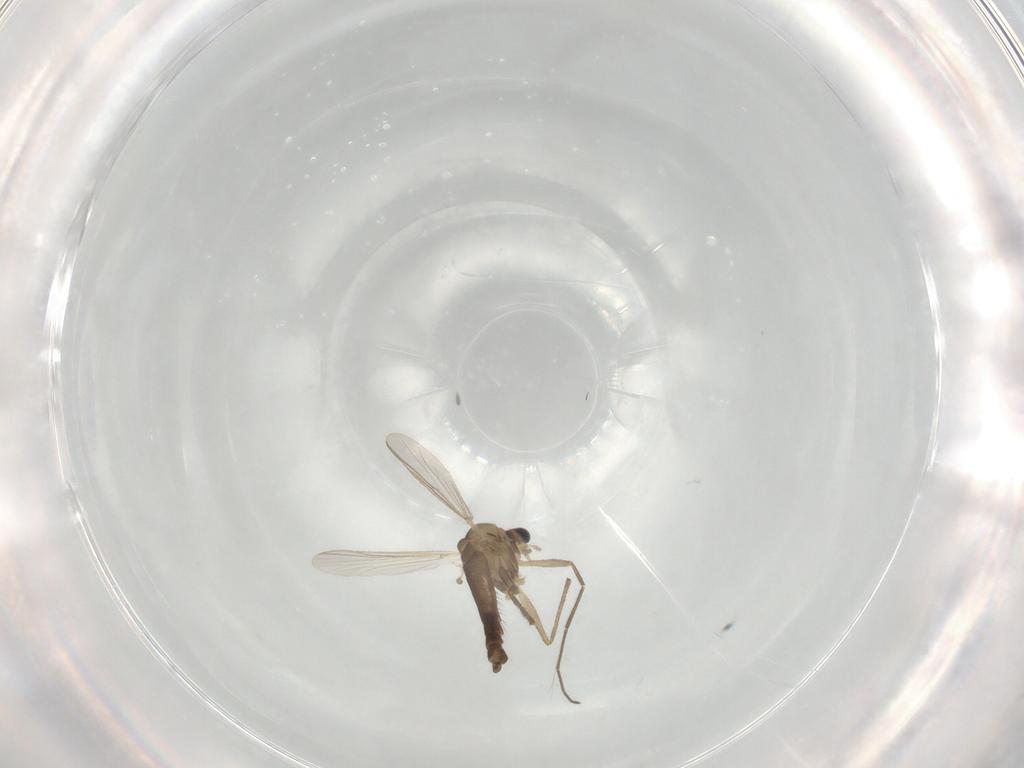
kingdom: Animalia
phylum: Arthropoda
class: Insecta
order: Diptera
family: Chironomidae
